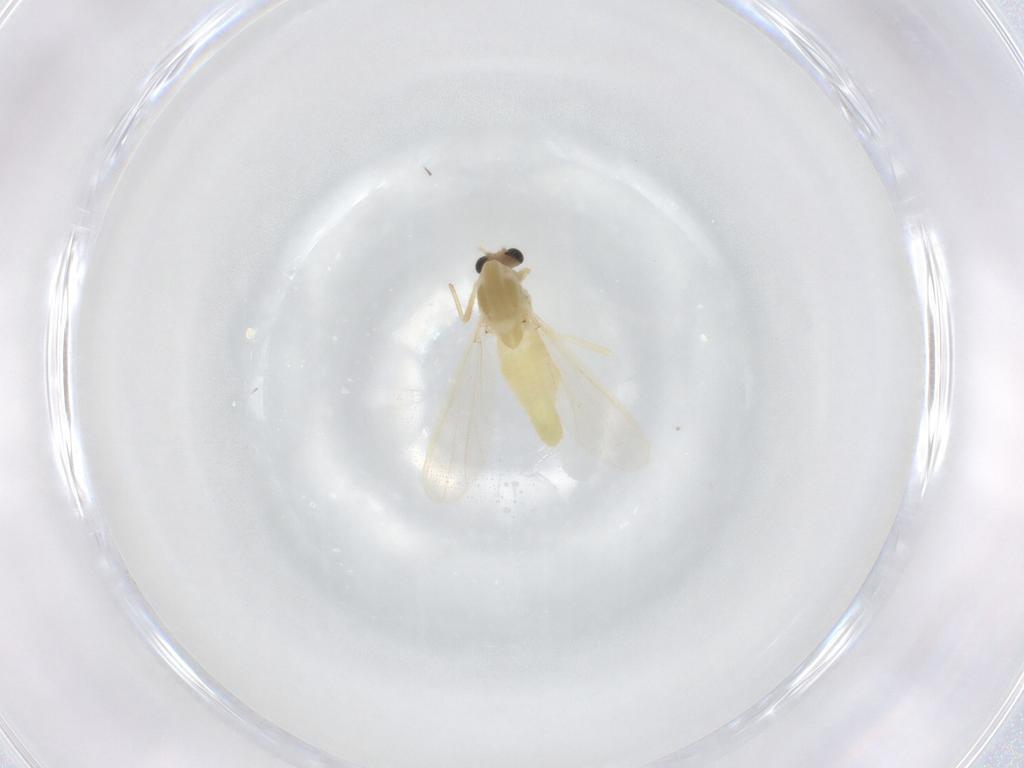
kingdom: Animalia
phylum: Arthropoda
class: Insecta
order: Diptera
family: Chironomidae
